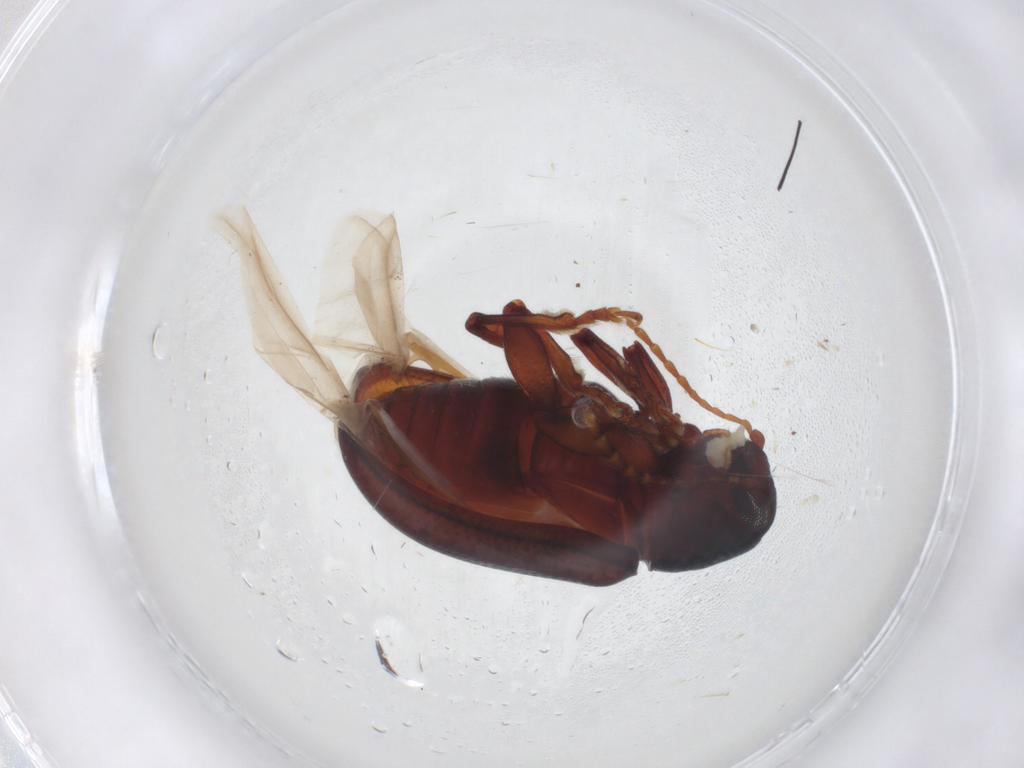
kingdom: Animalia
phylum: Arthropoda
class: Insecta
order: Coleoptera
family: Chrysomelidae
